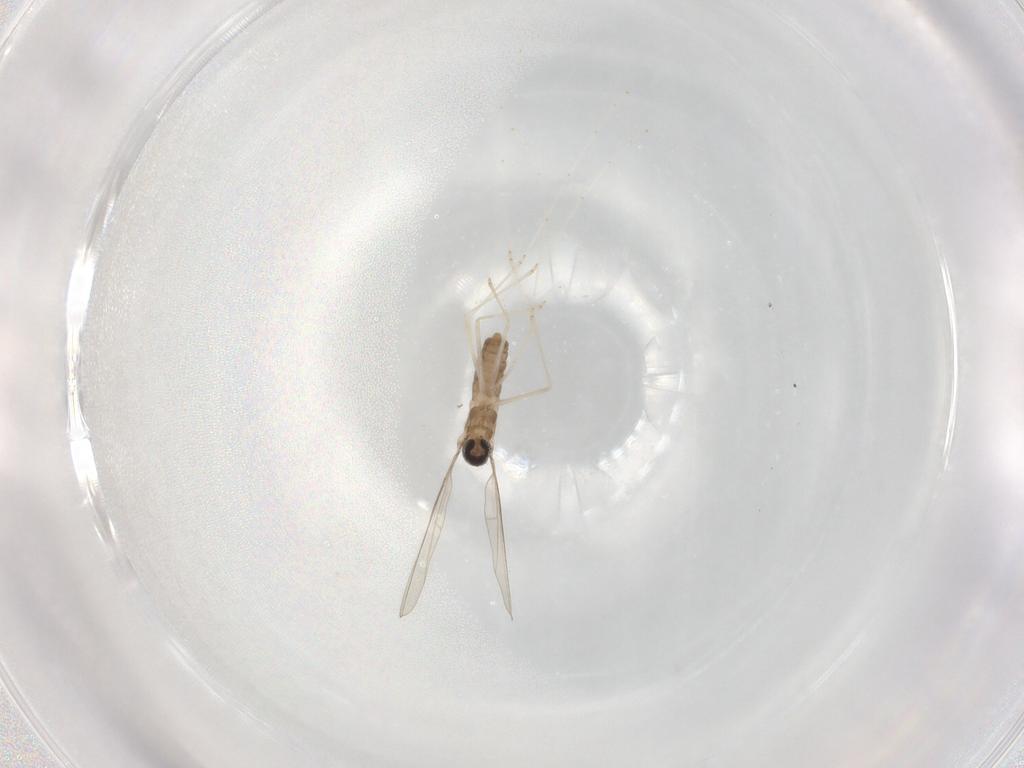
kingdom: Animalia
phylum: Arthropoda
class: Insecta
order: Diptera
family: Cecidomyiidae
